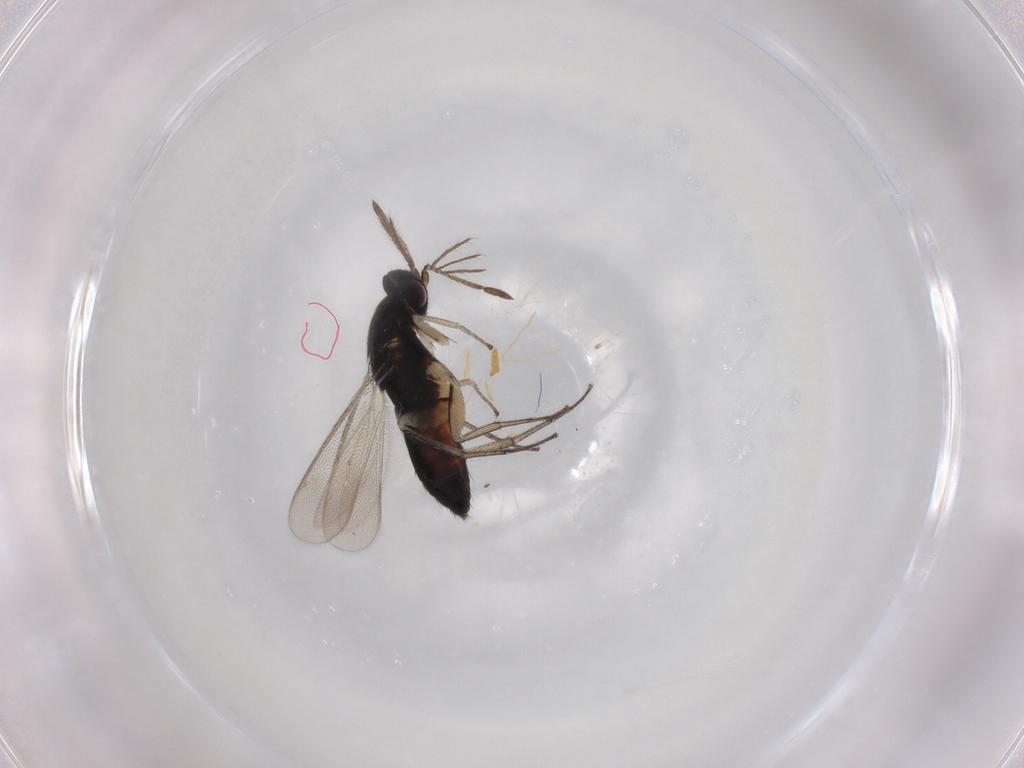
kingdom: Animalia
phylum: Arthropoda
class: Insecta
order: Hymenoptera
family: Eulophidae
